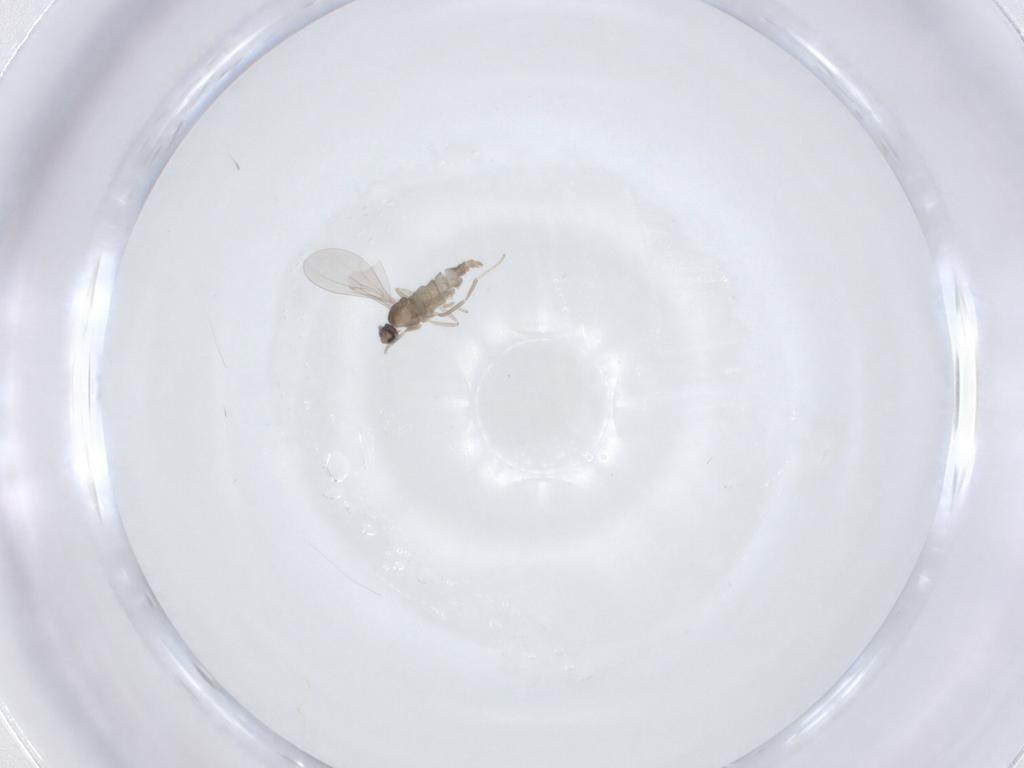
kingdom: Animalia
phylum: Arthropoda
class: Insecta
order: Diptera
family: Cecidomyiidae
